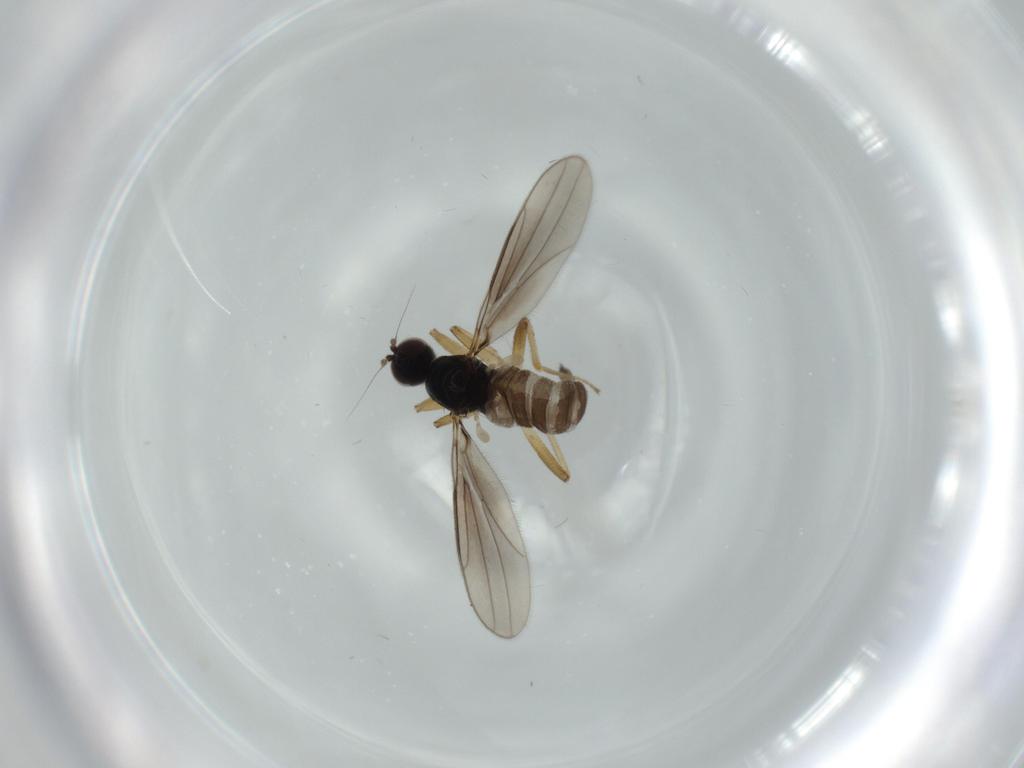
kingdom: Animalia
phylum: Arthropoda
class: Insecta
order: Diptera
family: Hybotidae
